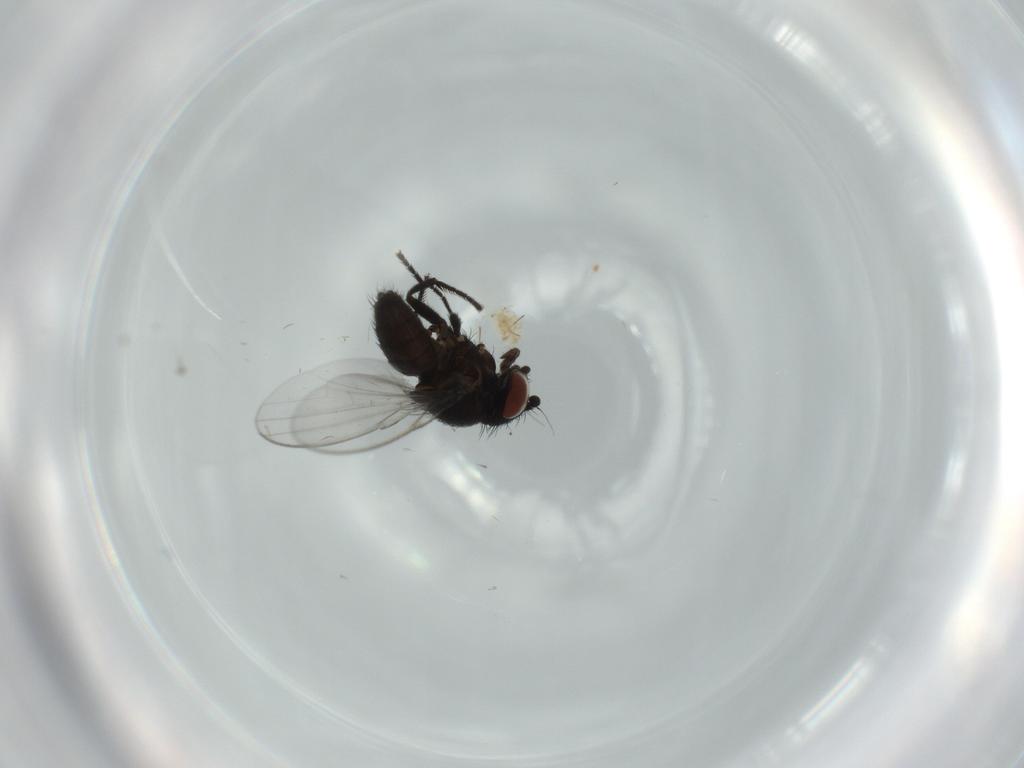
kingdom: Animalia
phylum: Arthropoda
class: Insecta
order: Diptera
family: Milichiidae
